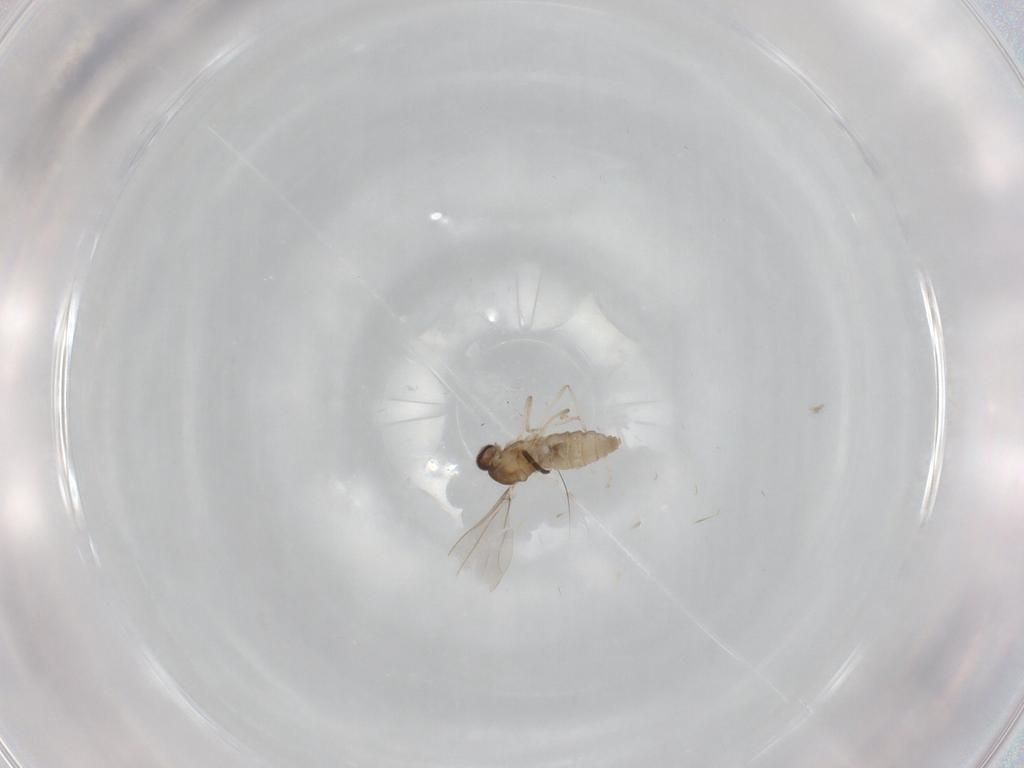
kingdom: Animalia
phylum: Arthropoda
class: Insecta
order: Diptera
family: Cecidomyiidae
